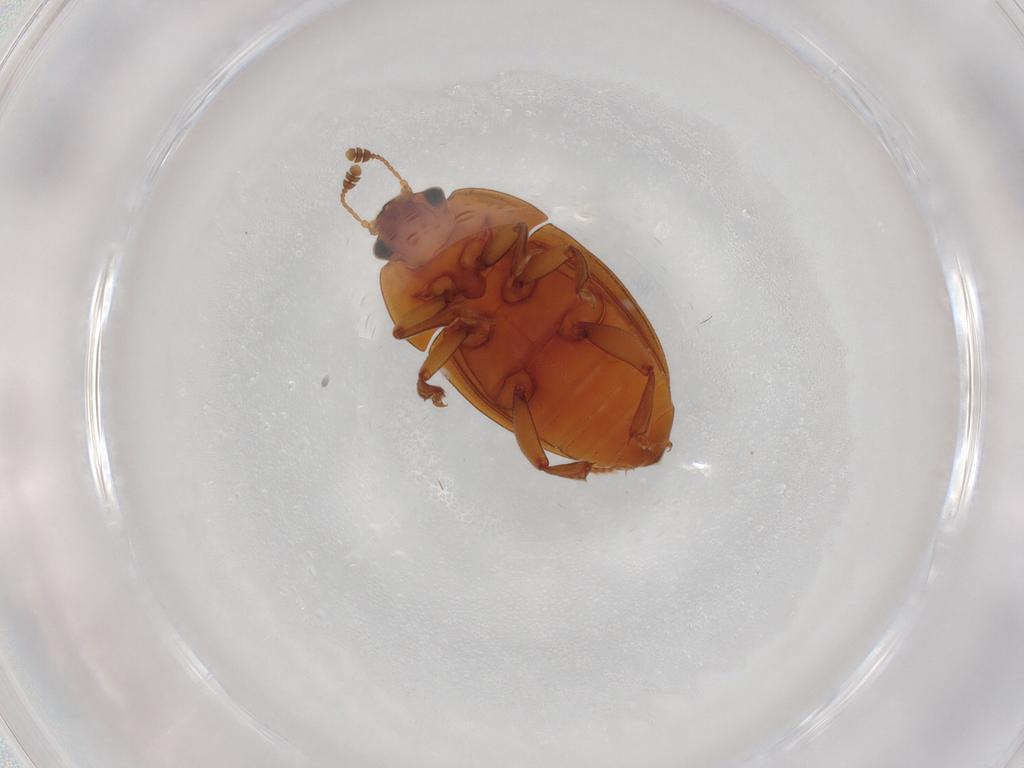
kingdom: Animalia
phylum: Arthropoda
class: Insecta
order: Coleoptera
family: Nitidulidae
